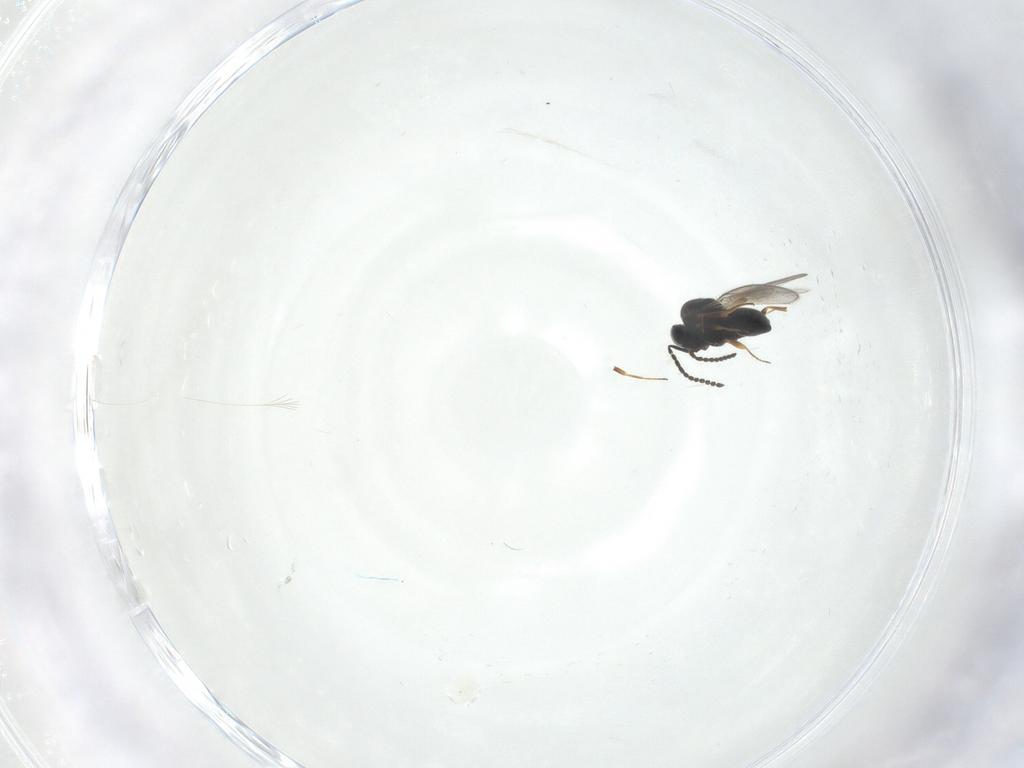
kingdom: Animalia
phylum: Arthropoda
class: Insecta
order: Hymenoptera
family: Scelionidae
